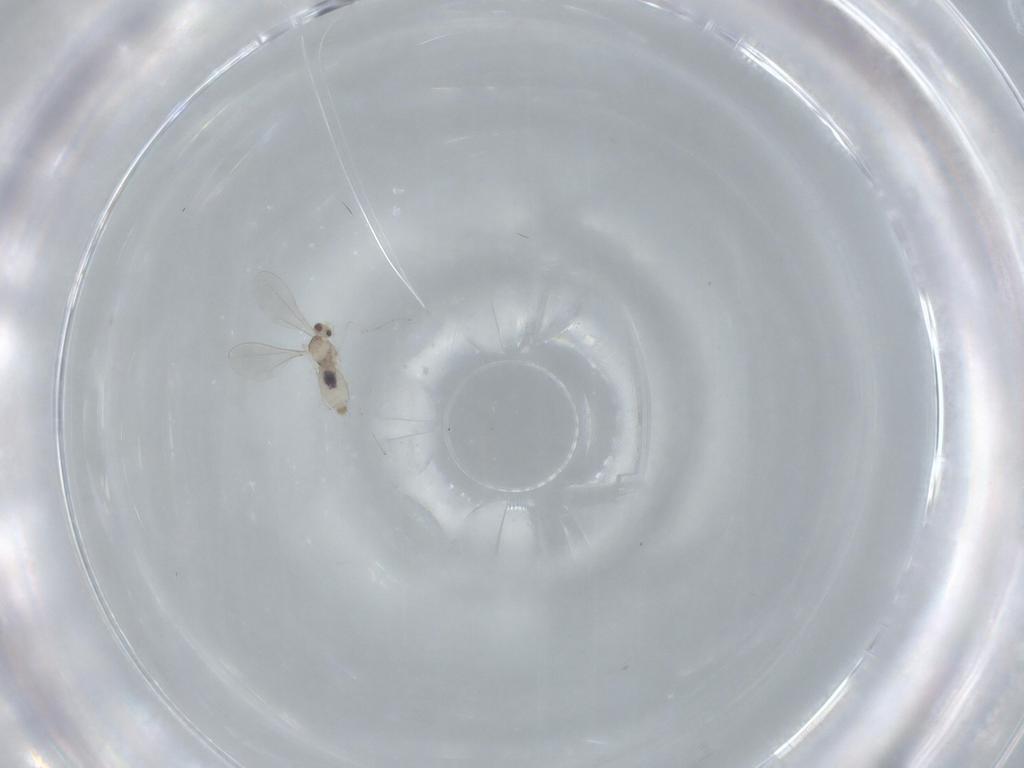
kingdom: Animalia
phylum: Arthropoda
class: Insecta
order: Diptera
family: Cecidomyiidae
